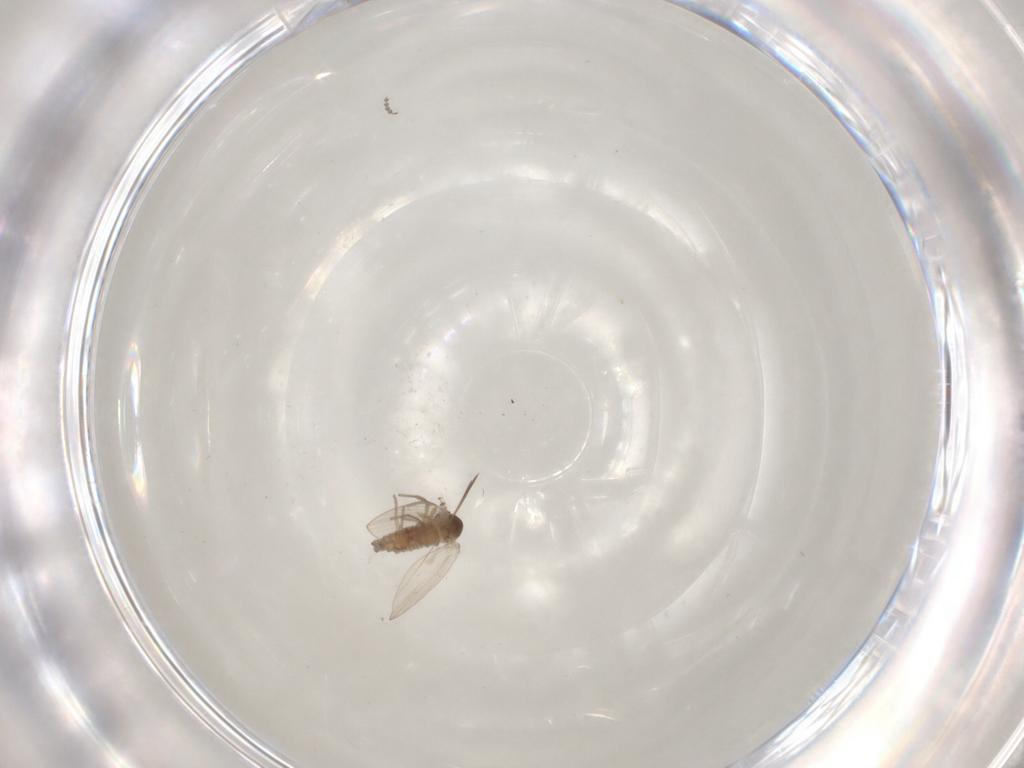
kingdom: Animalia
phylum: Arthropoda
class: Insecta
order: Diptera
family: Psychodidae
